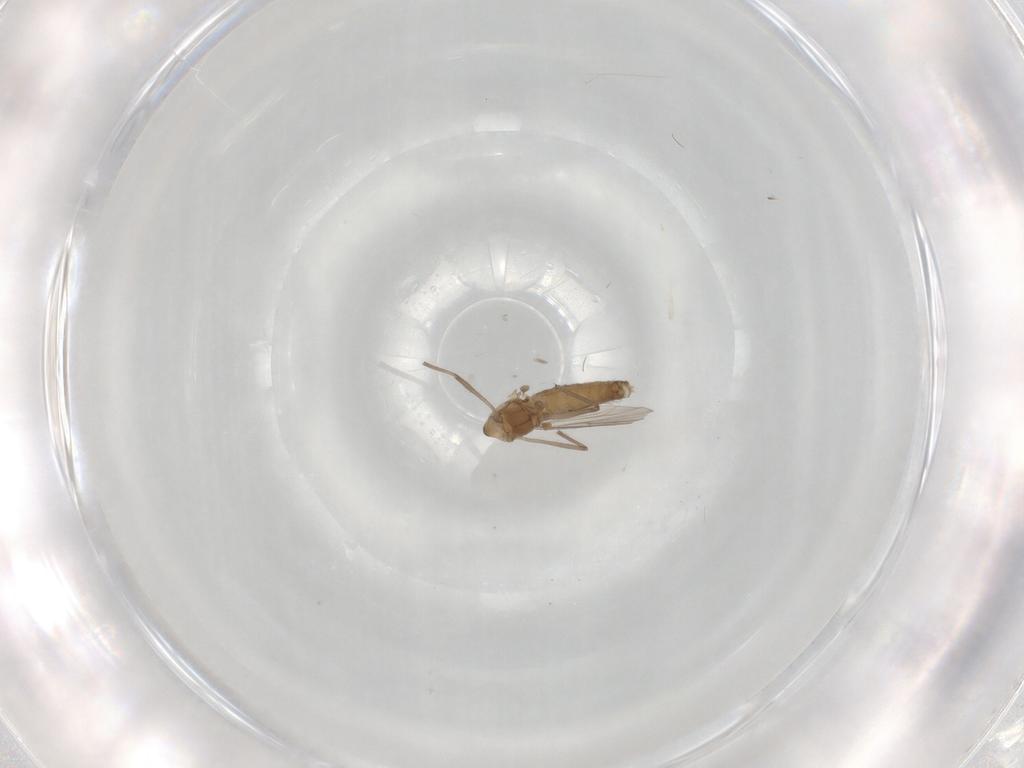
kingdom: Animalia
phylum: Arthropoda
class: Insecta
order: Diptera
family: Chironomidae
